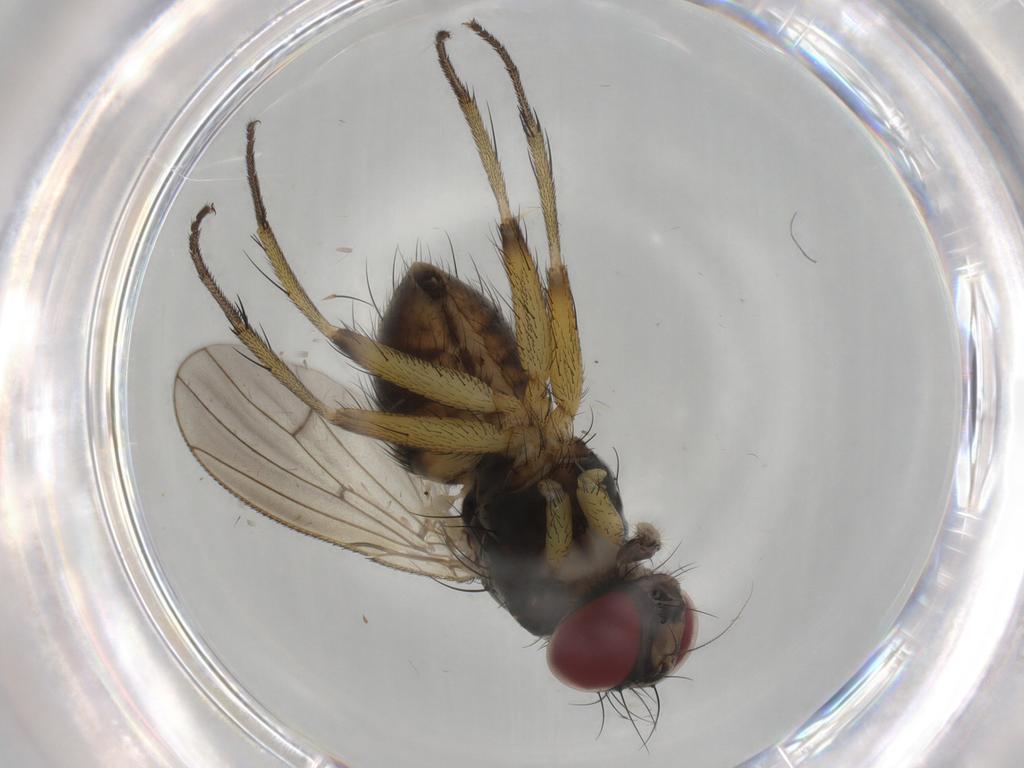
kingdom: Animalia
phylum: Arthropoda
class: Insecta
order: Diptera
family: Muscidae
